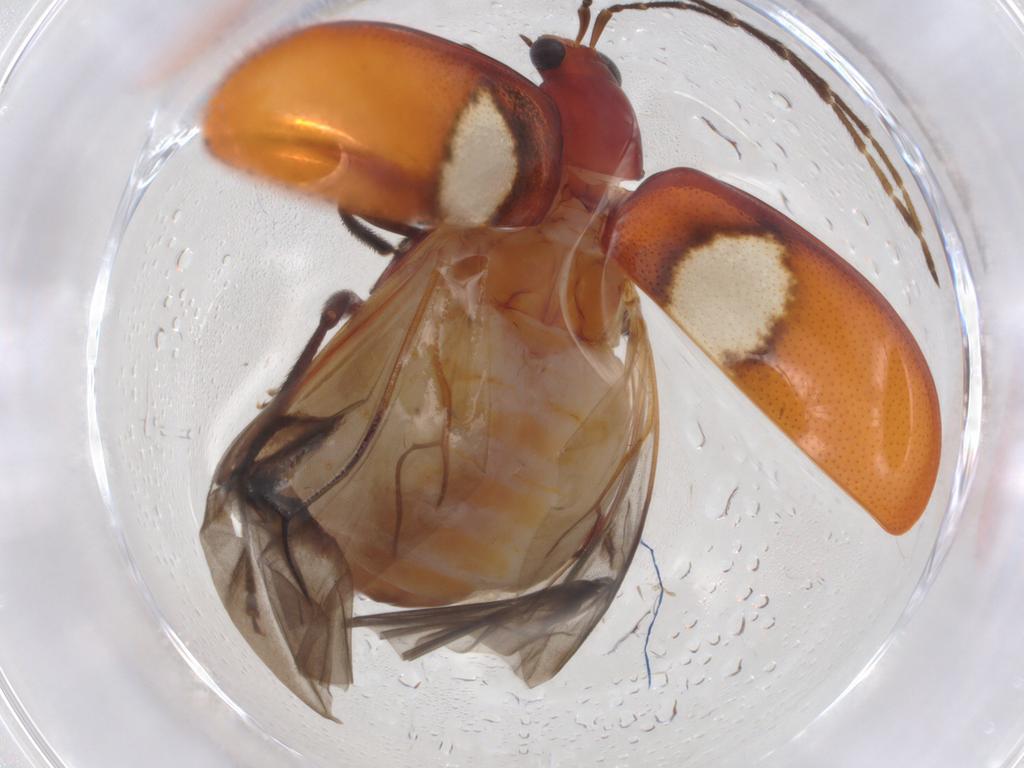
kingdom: Animalia
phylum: Arthropoda
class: Insecta
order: Coleoptera
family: Chrysomelidae
